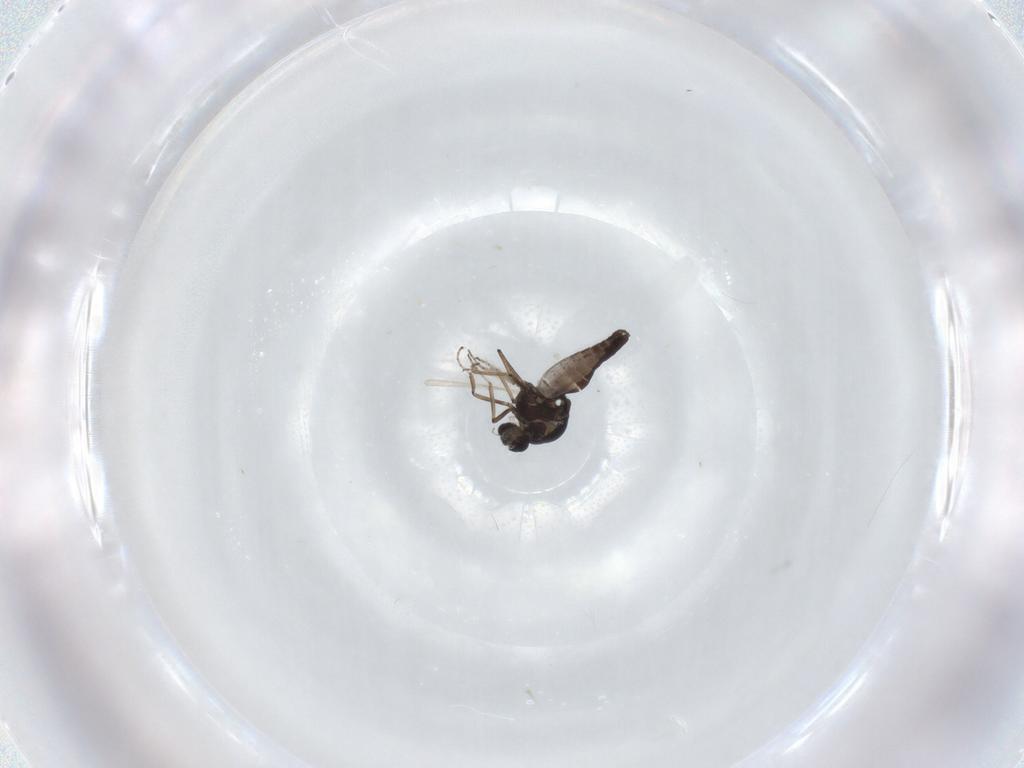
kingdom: Animalia
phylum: Arthropoda
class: Insecta
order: Diptera
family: Ceratopogonidae
